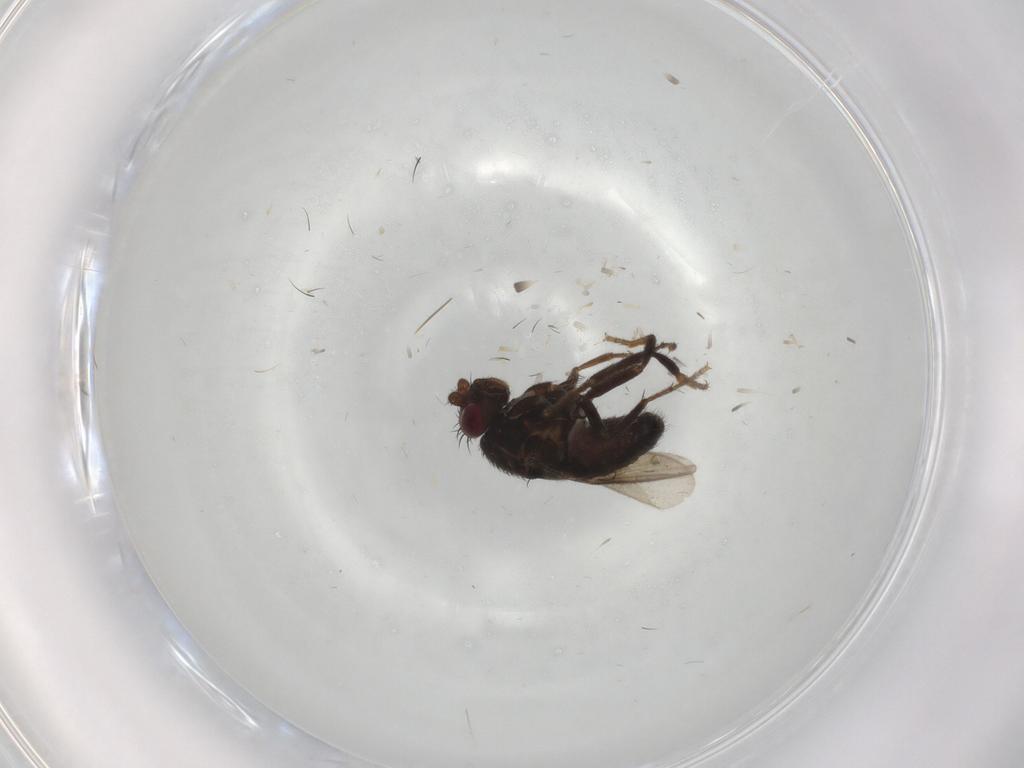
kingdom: Animalia
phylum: Arthropoda
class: Insecta
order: Diptera
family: Sphaeroceridae
